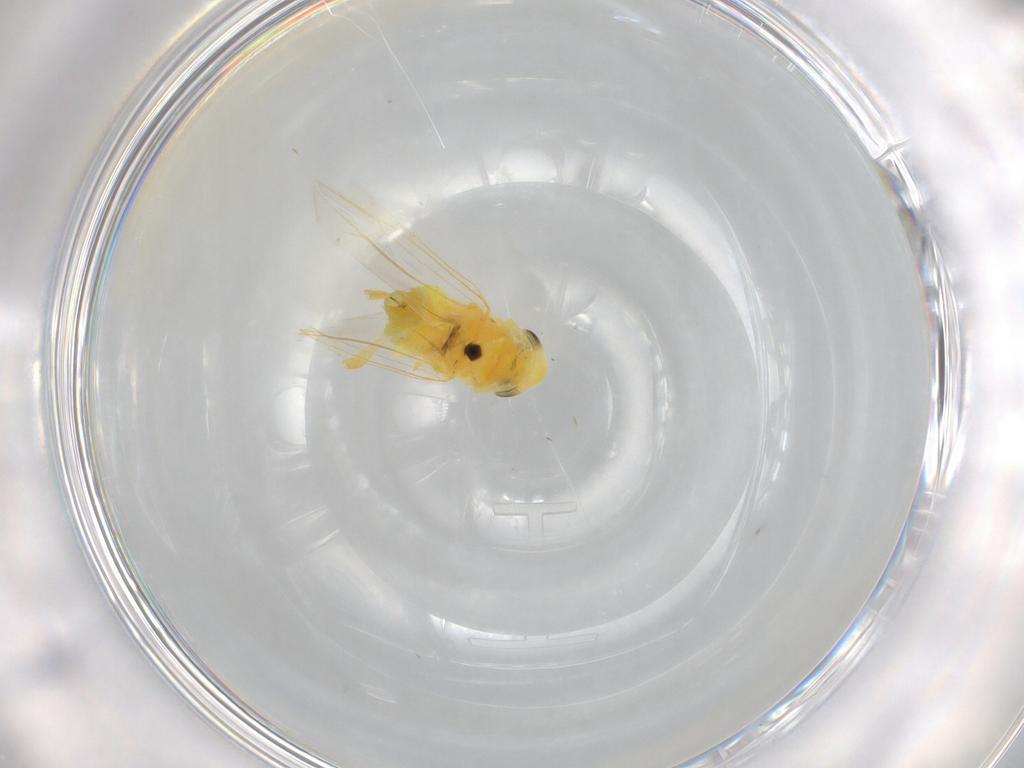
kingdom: Animalia
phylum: Arthropoda
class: Insecta
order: Hemiptera
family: Cicadellidae
